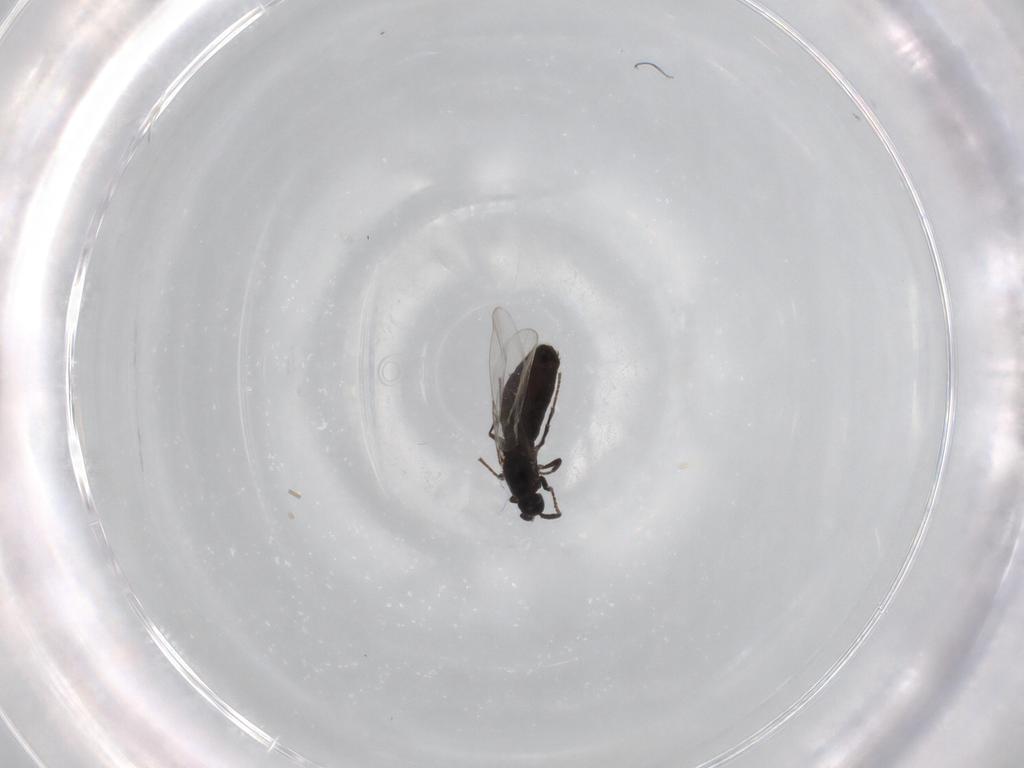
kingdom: Animalia
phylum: Arthropoda
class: Insecta
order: Diptera
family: Scatopsidae
